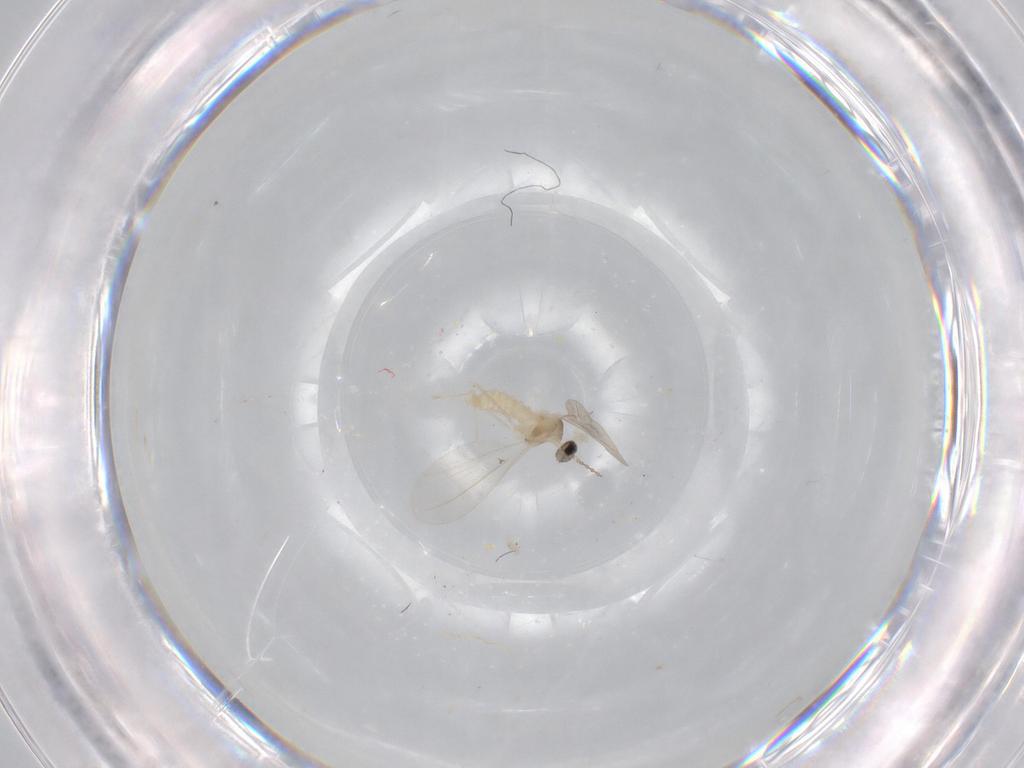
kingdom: Animalia
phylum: Arthropoda
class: Insecta
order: Diptera
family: Cecidomyiidae
